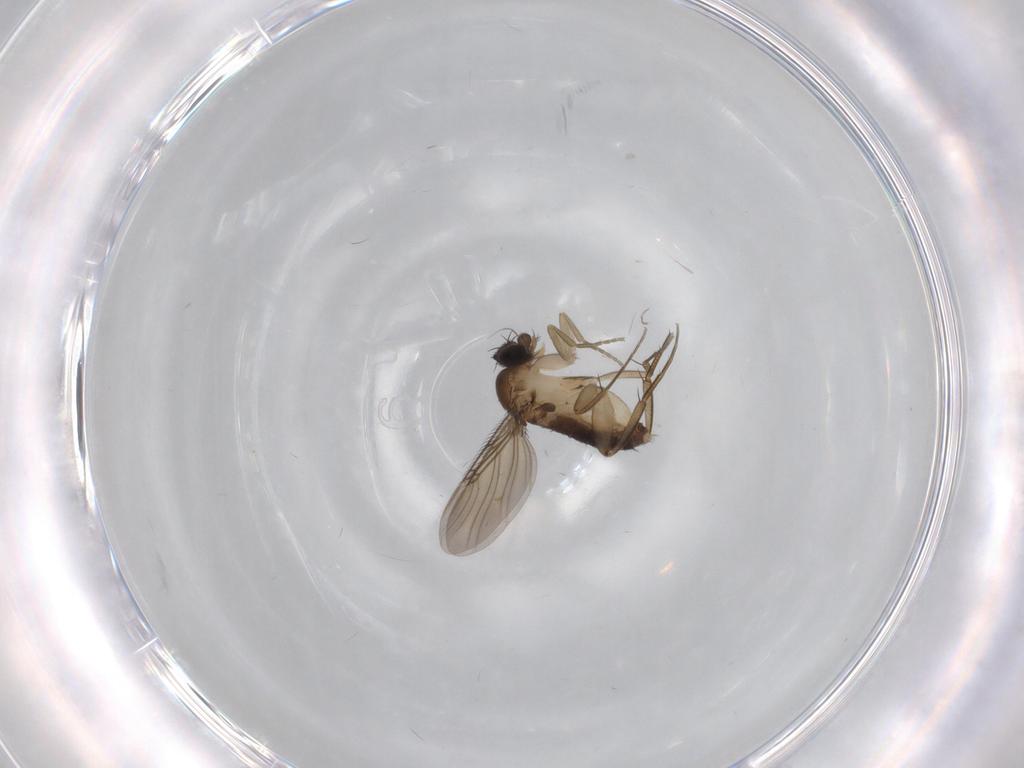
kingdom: Animalia
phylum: Arthropoda
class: Insecta
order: Diptera
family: Phoridae
